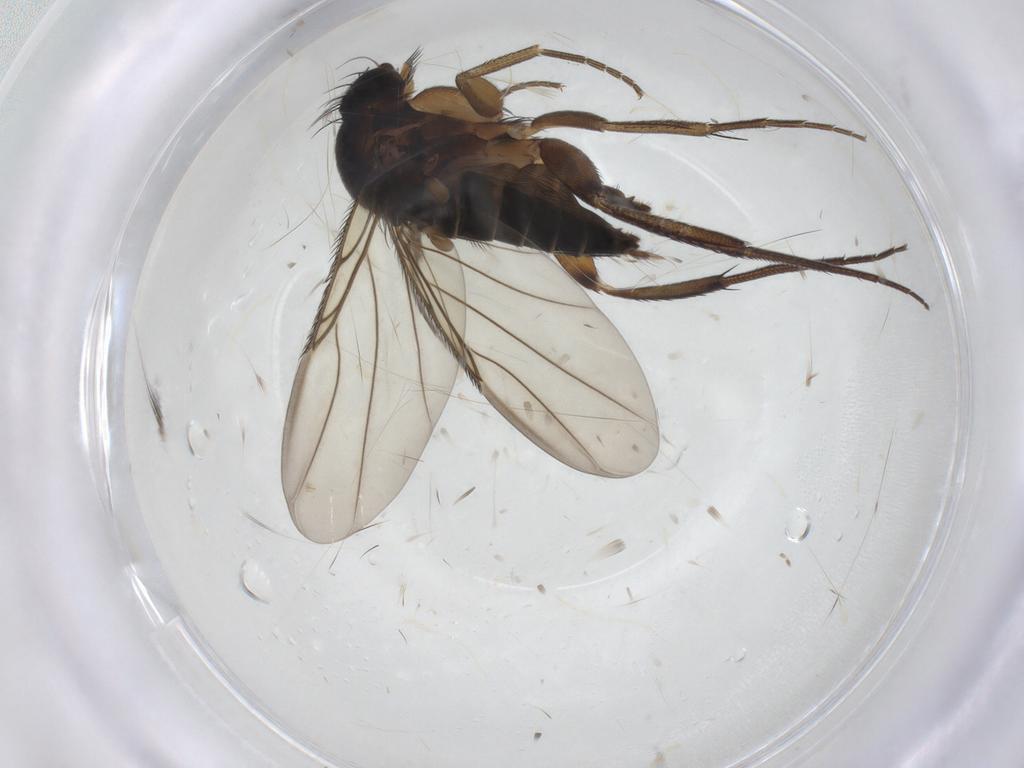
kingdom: Animalia
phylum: Arthropoda
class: Insecta
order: Diptera
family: Phoridae
